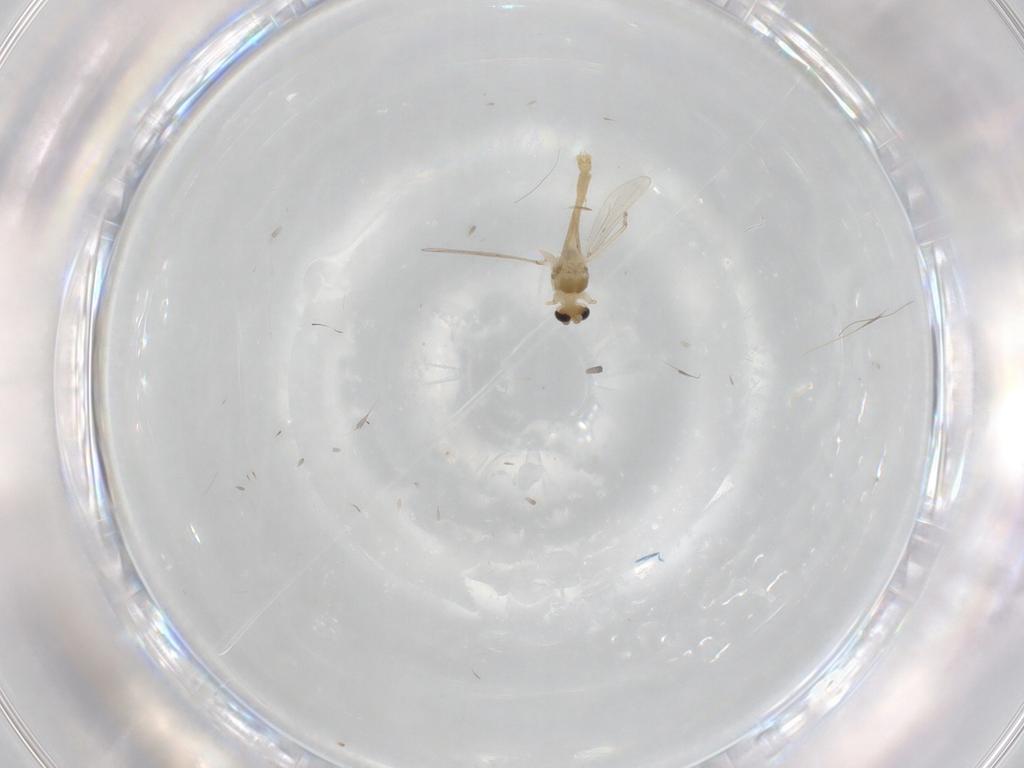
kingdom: Animalia
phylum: Arthropoda
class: Insecta
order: Diptera
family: Chironomidae
